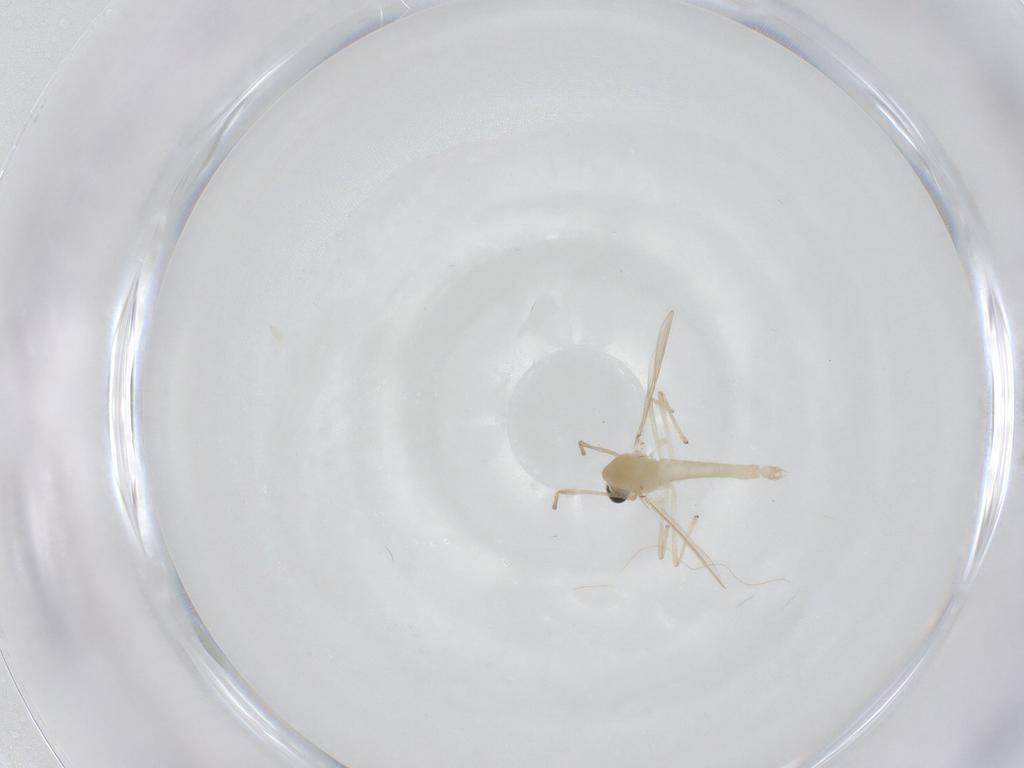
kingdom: Animalia
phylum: Arthropoda
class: Insecta
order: Diptera
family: Chironomidae
